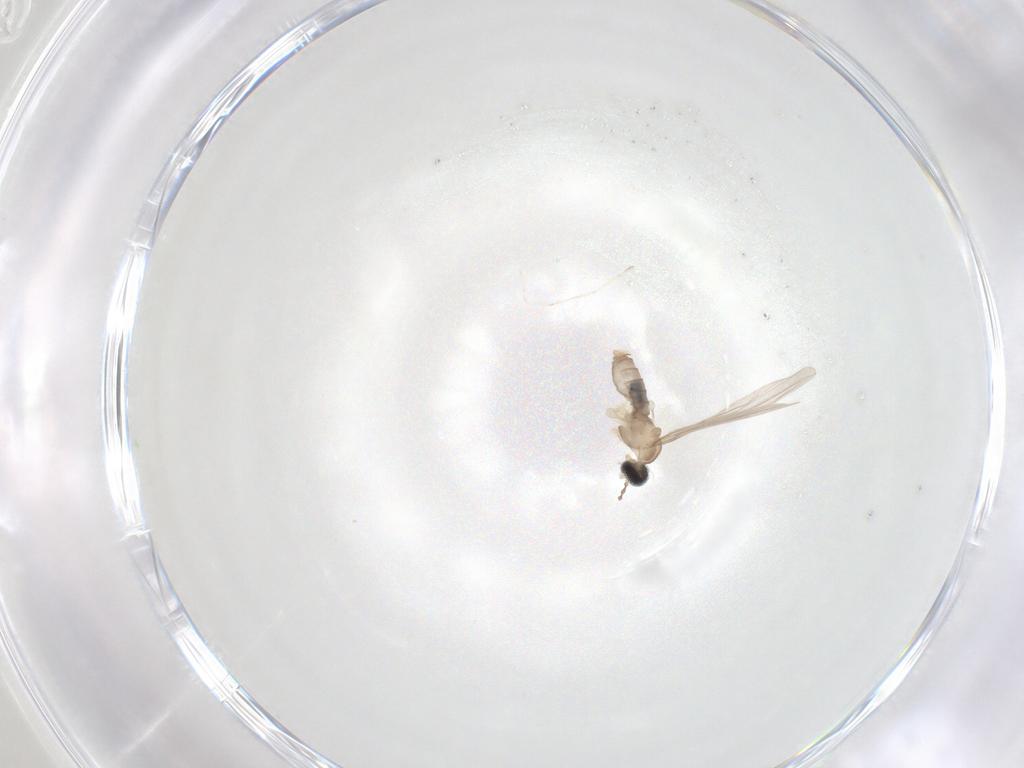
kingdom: Animalia
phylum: Arthropoda
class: Insecta
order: Diptera
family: Cecidomyiidae
